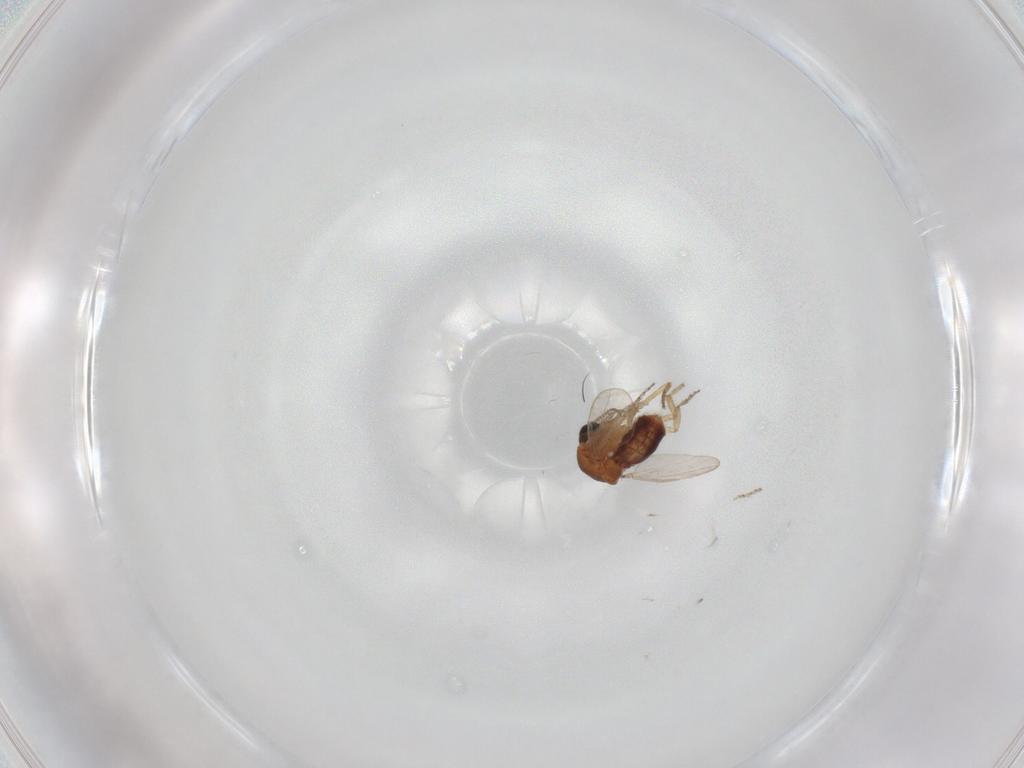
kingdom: Animalia
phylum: Arthropoda
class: Insecta
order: Diptera
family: Ceratopogonidae
